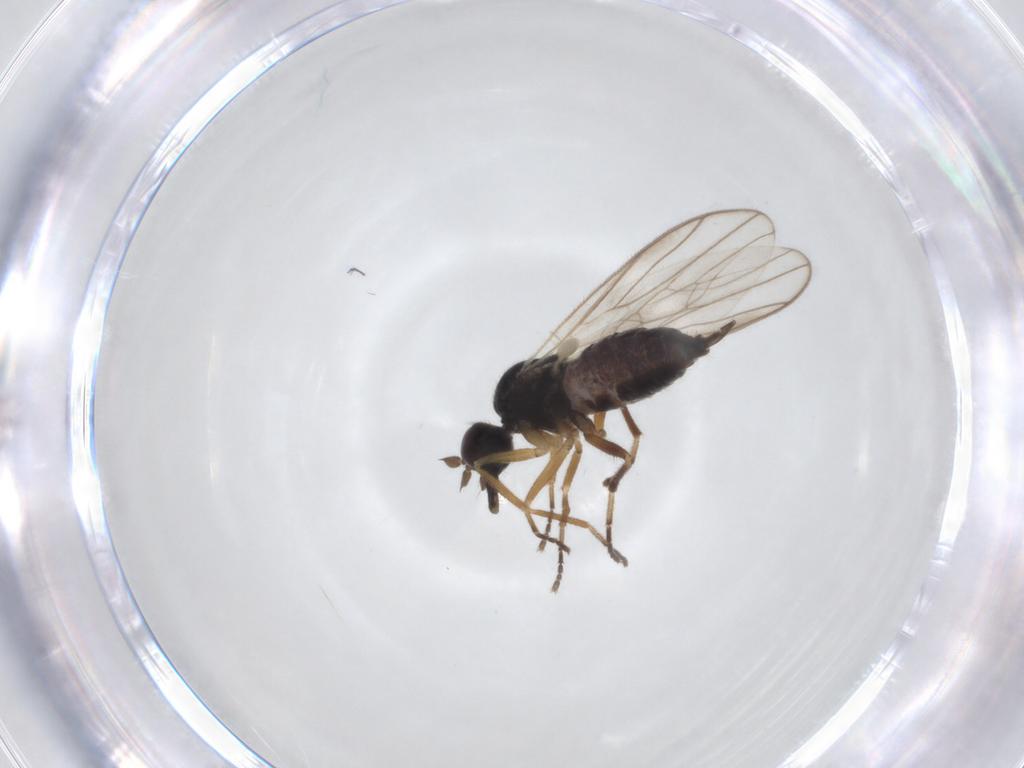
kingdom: Animalia
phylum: Arthropoda
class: Insecta
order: Diptera
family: Hybotidae
